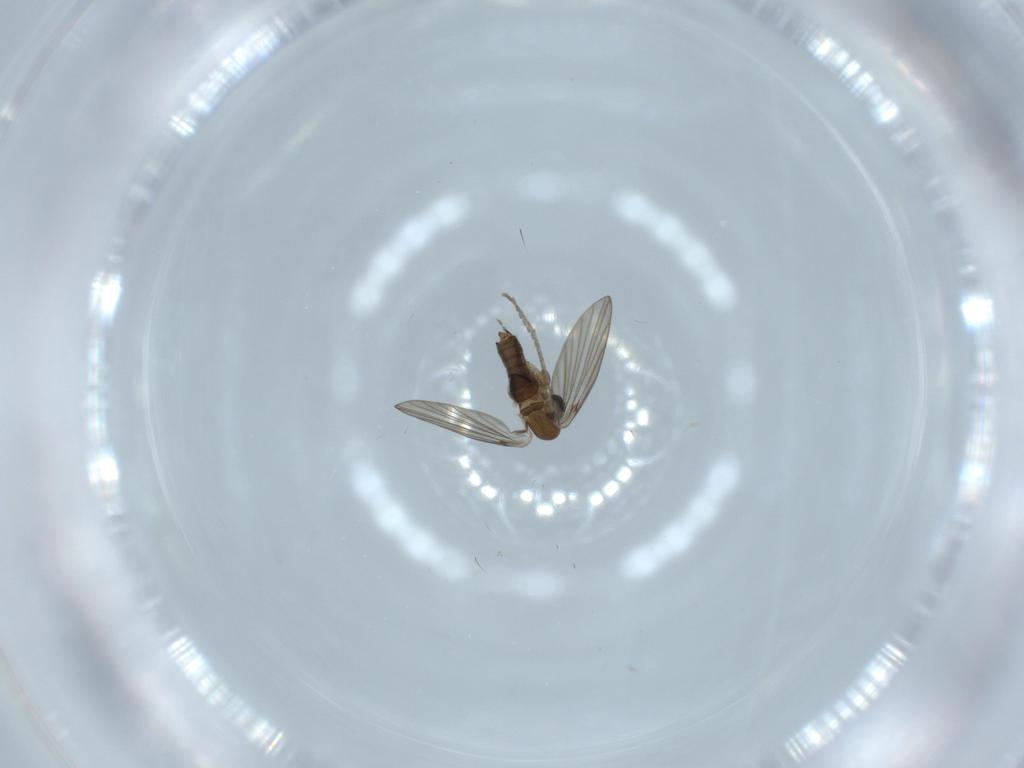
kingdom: Animalia
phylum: Arthropoda
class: Insecta
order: Diptera
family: Psychodidae
